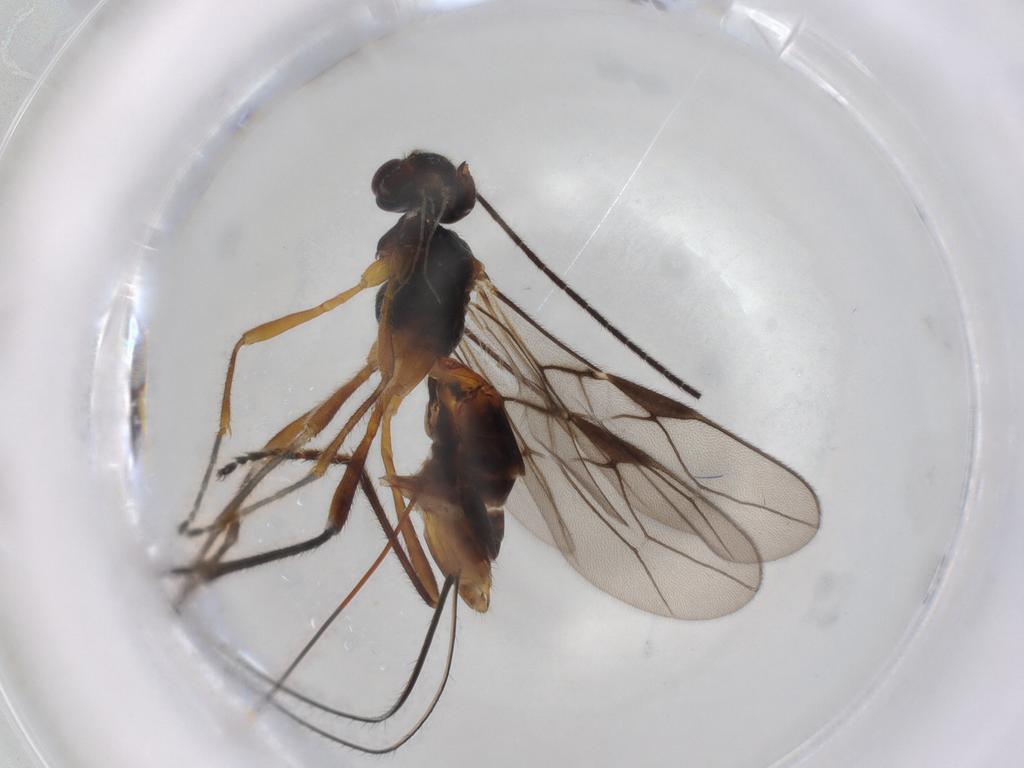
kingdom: Animalia
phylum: Arthropoda
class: Insecta
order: Hymenoptera
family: Braconidae
